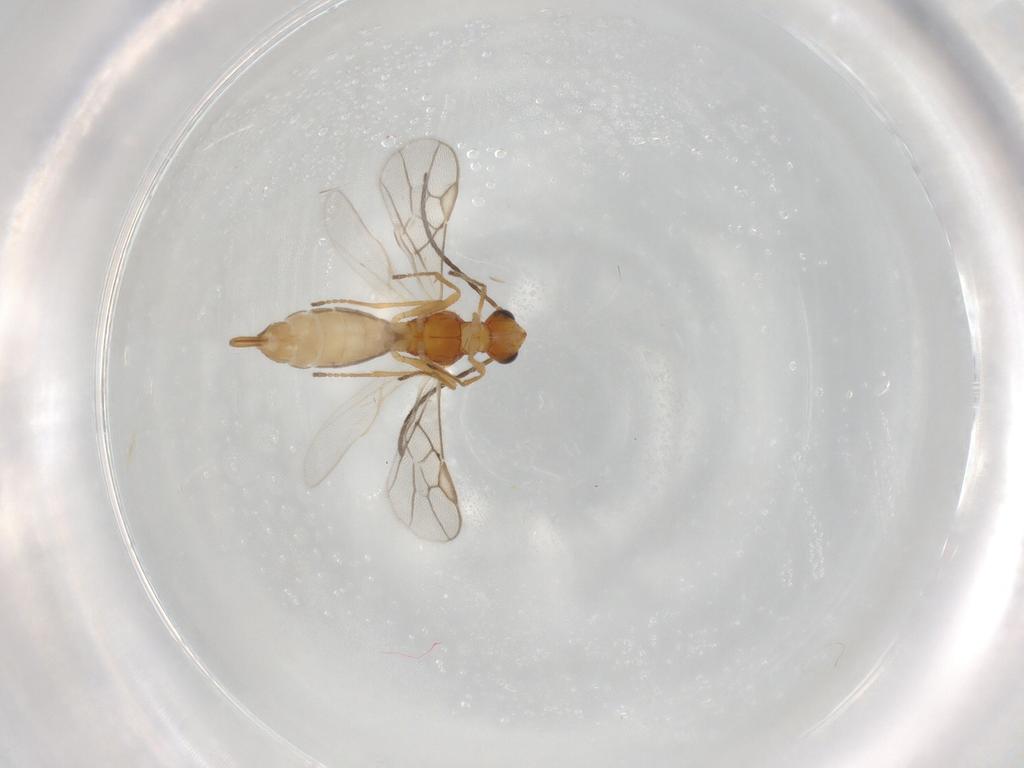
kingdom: Animalia
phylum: Arthropoda
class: Insecta
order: Hymenoptera
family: Braconidae
